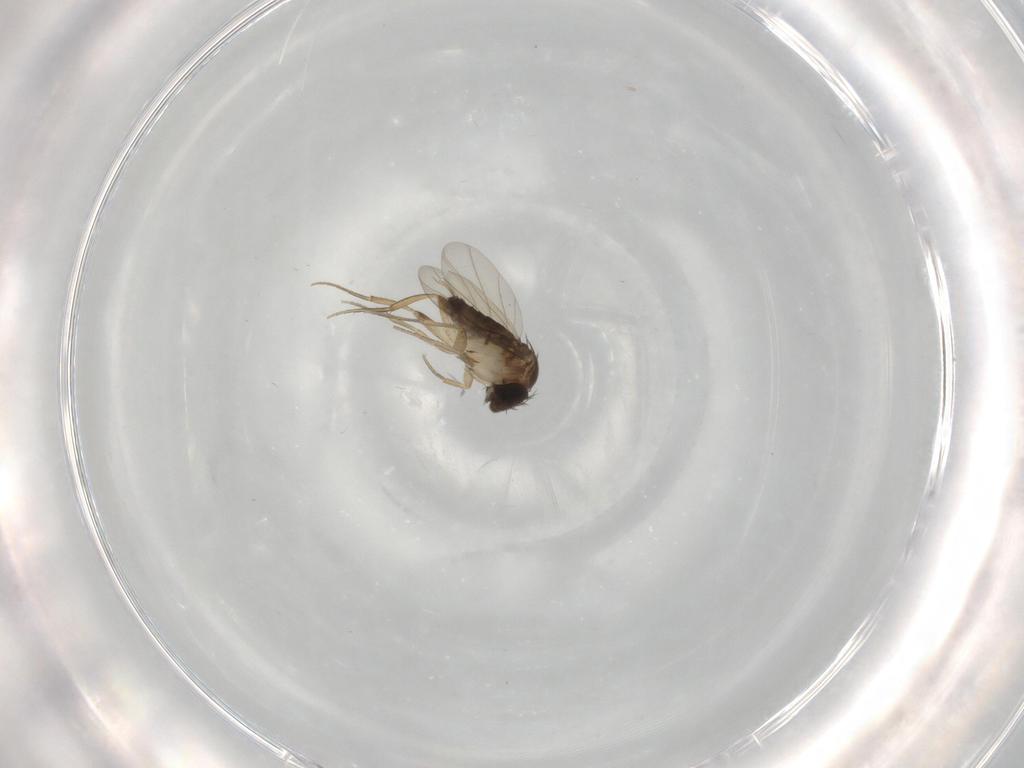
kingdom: Animalia
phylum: Arthropoda
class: Insecta
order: Diptera
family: Phoridae
